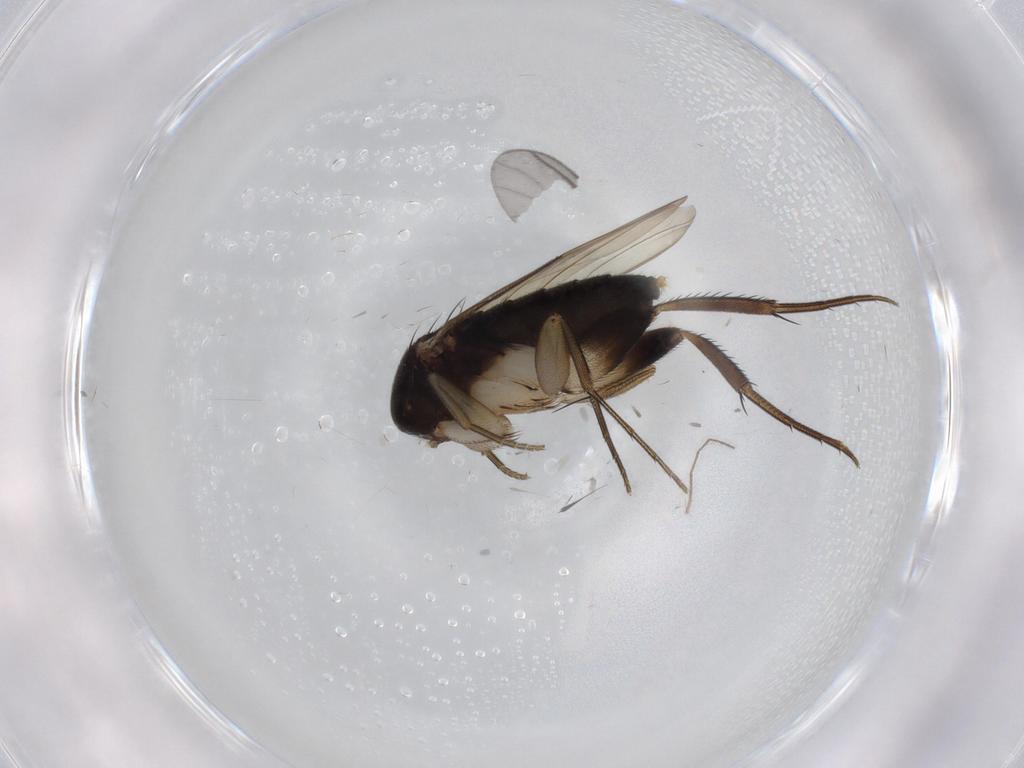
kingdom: Animalia
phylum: Arthropoda
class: Insecta
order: Diptera
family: Phoridae
